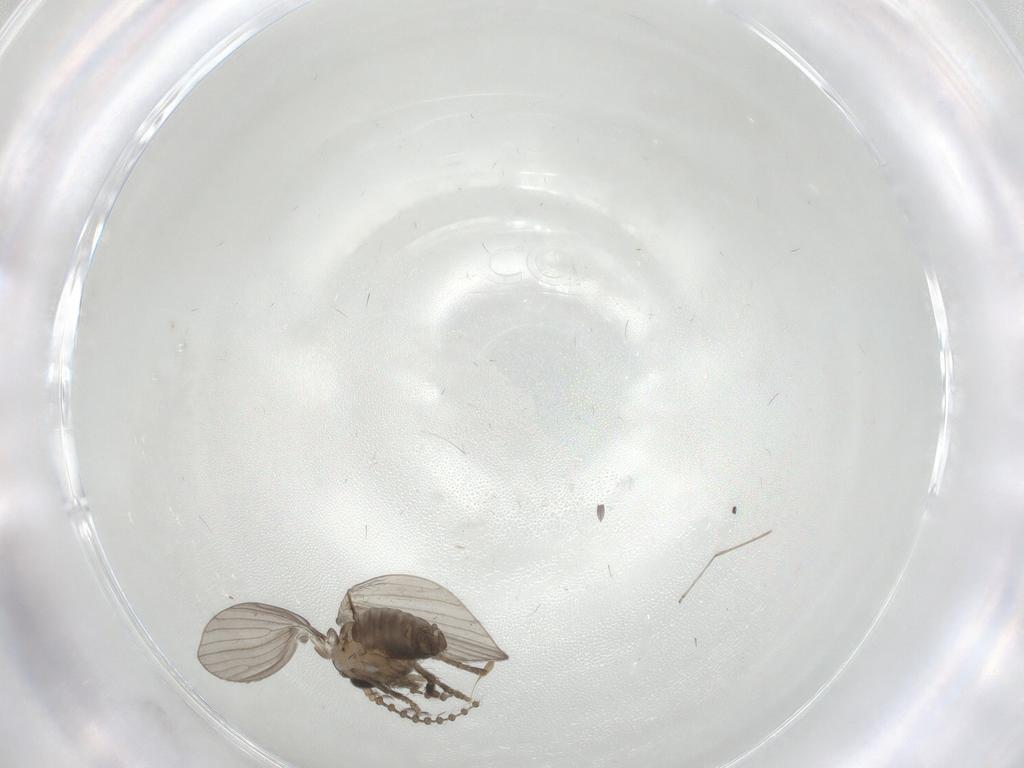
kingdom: Animalia
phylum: Arthropoda
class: Insecta
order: Diptera
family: Psychodidae
